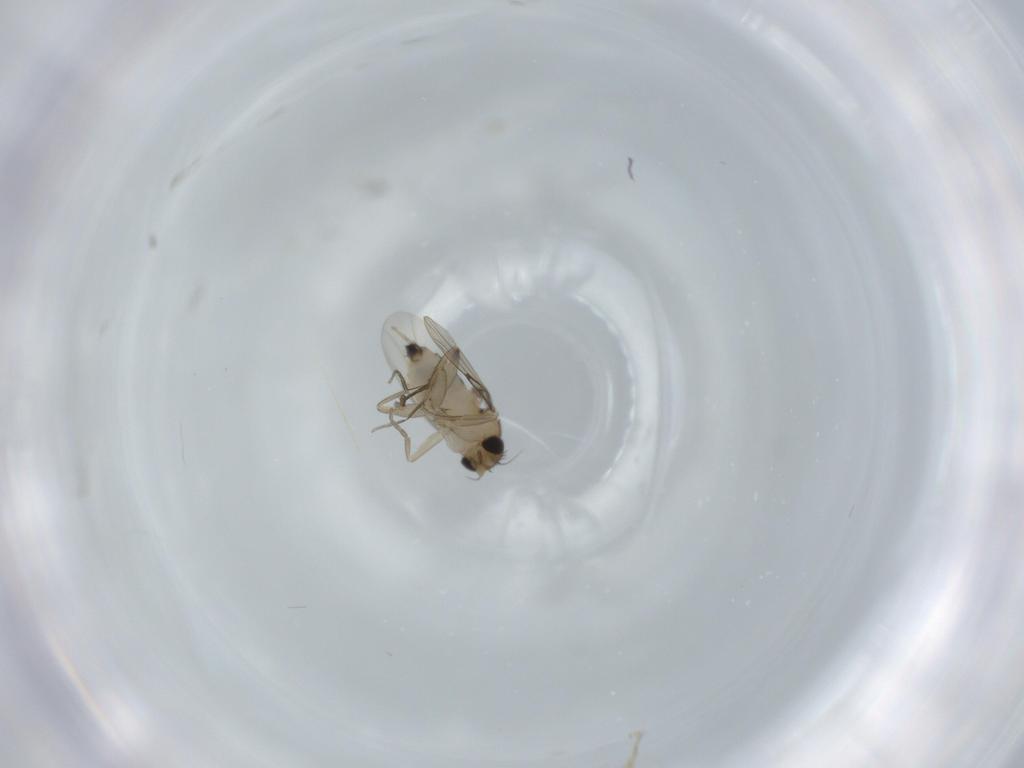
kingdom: Animalia
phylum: Arthropoda
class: Insecta
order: Diptera
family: Phoridae
